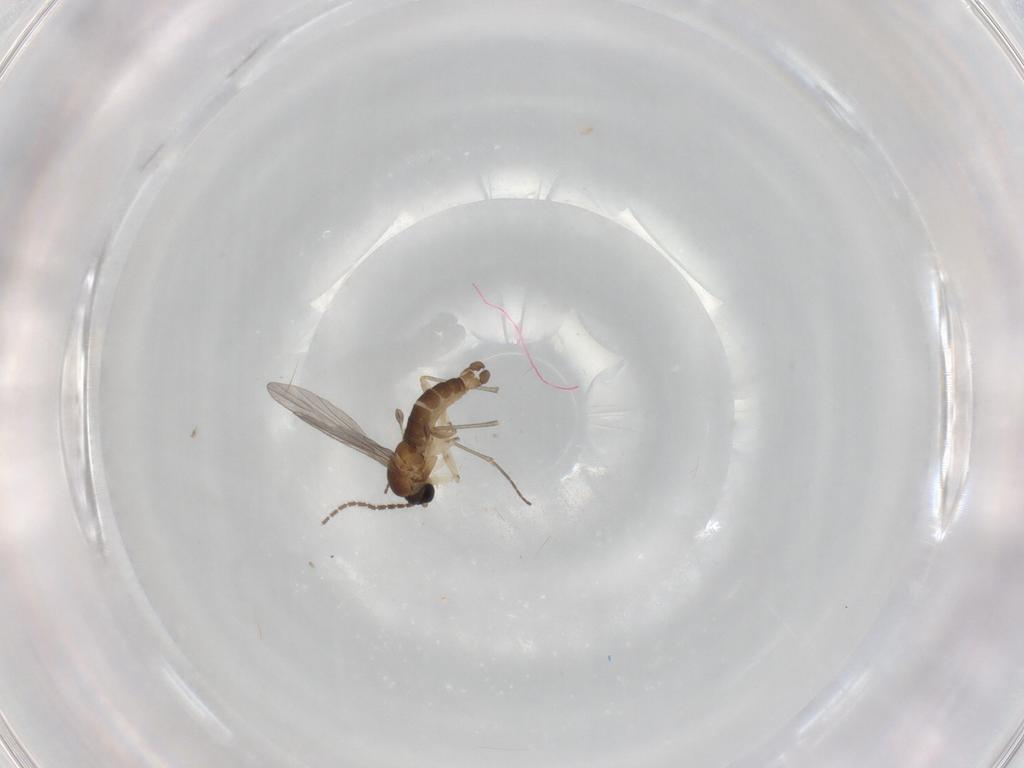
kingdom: Animalia
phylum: Arthropoda
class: Insecta
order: Diptera
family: Sciaridae
